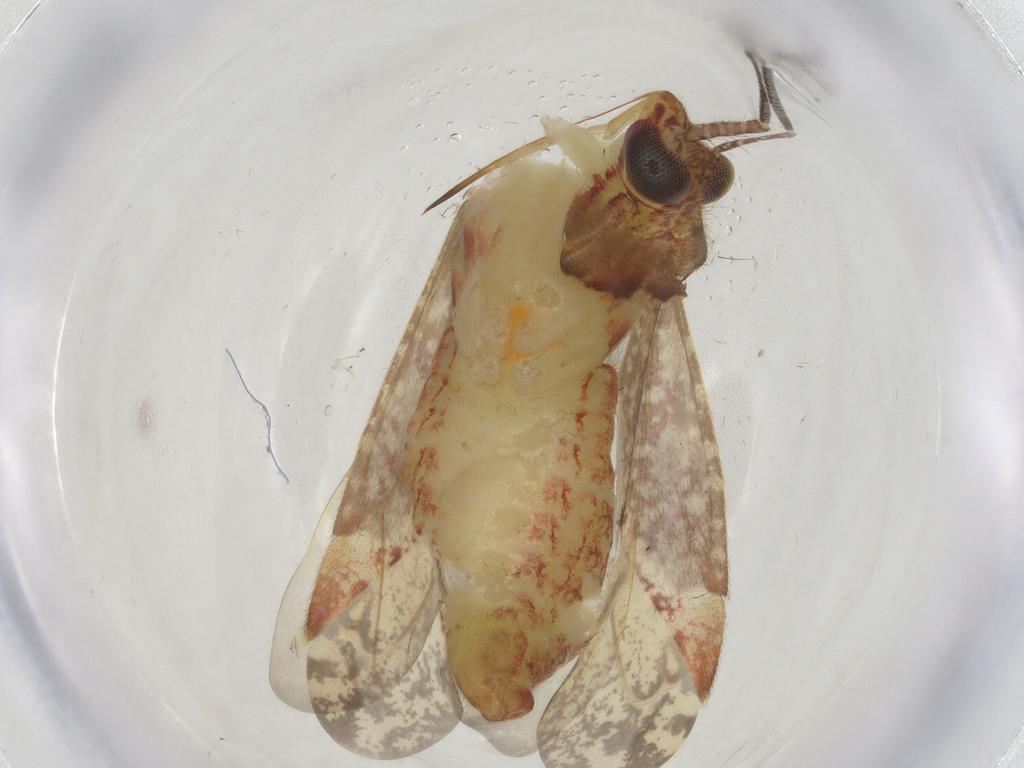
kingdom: Animalia
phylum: Arthropoda
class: Insecta
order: Hemiptera
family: Miridae
